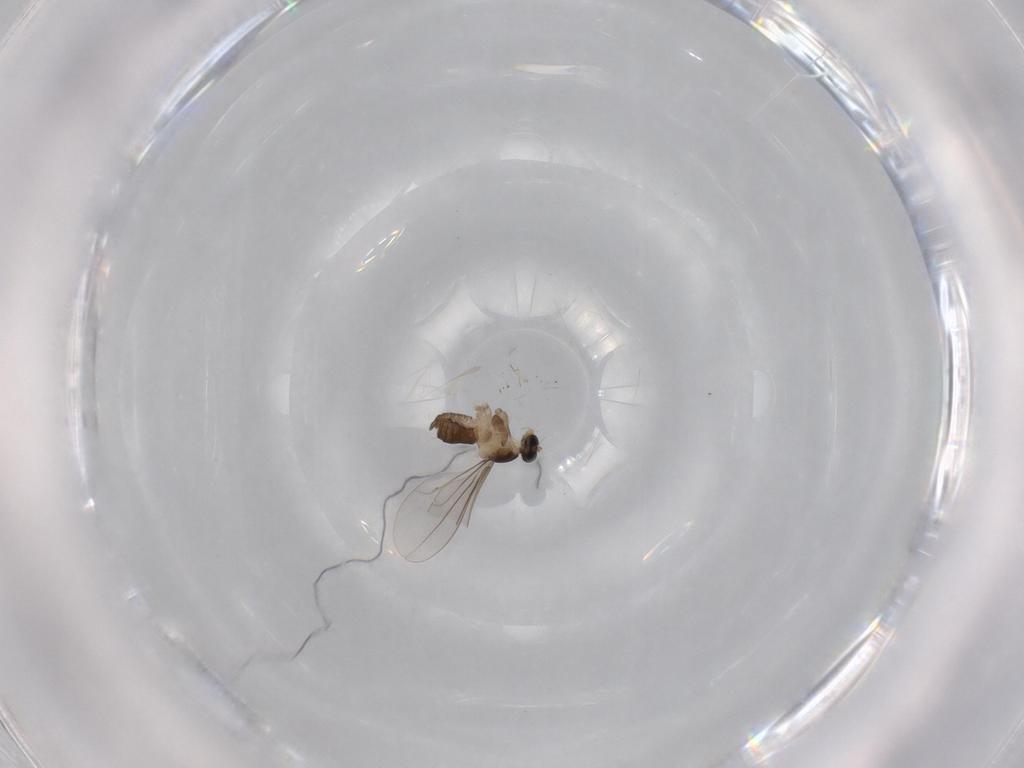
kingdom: Animalia
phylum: Arthropoda
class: Insecta
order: Diptera
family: Cecidomyiidae
